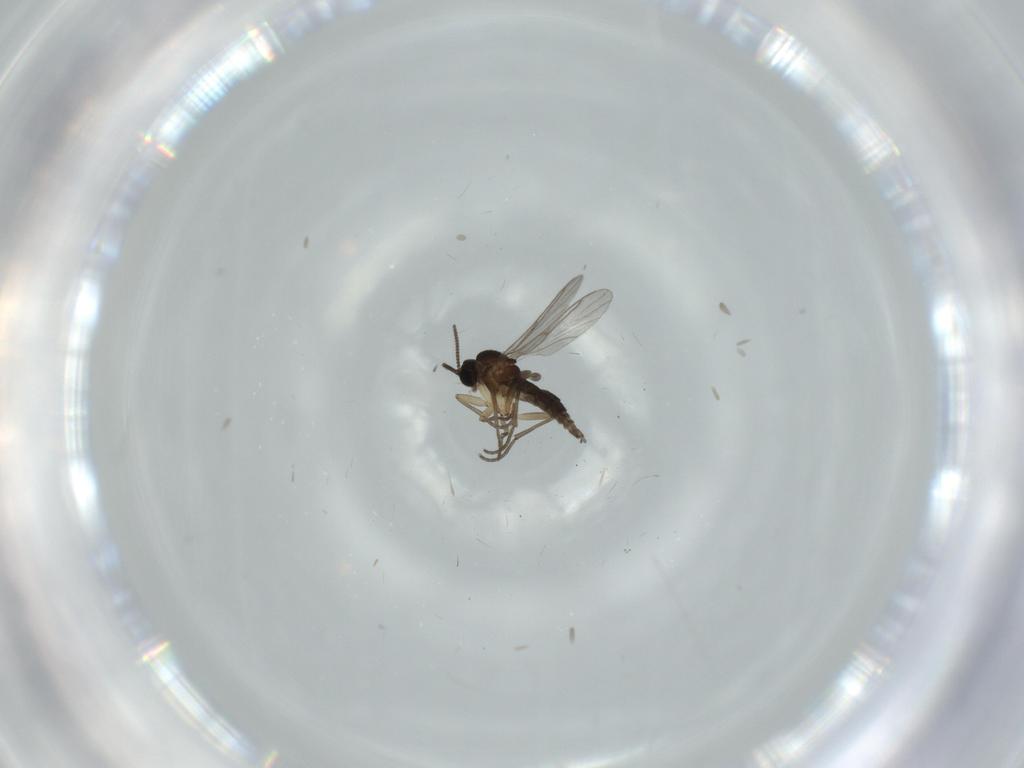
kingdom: Animalia
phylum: Arthropoda
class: Insecta
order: Diptera
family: Sciaridae
